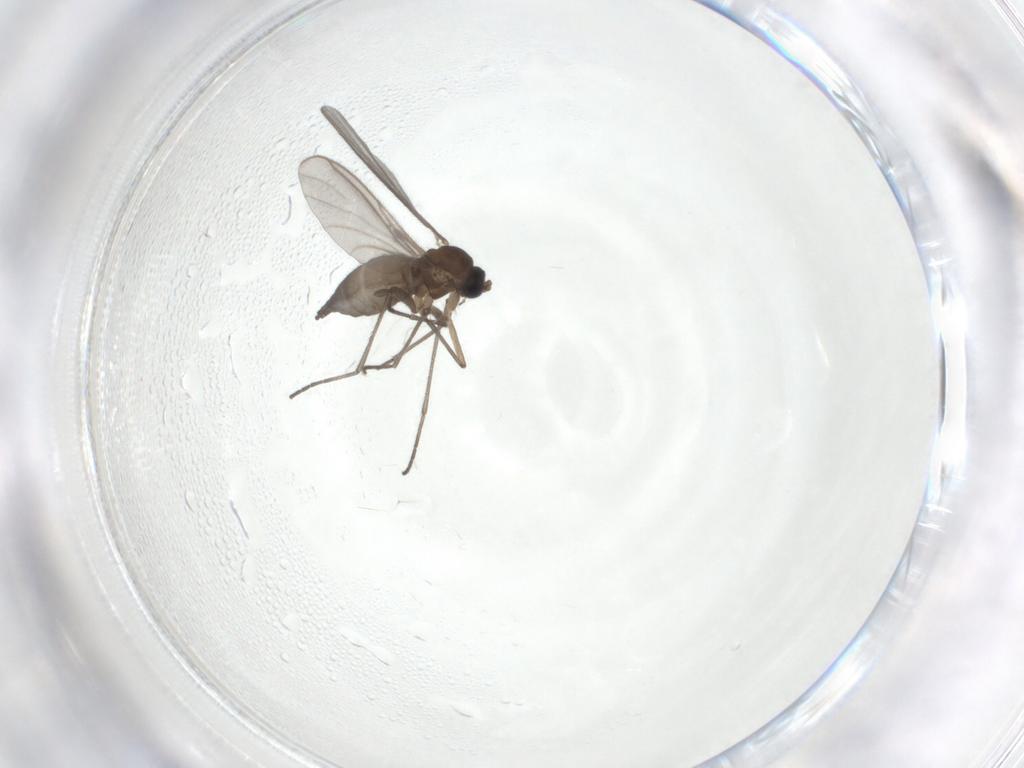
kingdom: Animalia
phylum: Arthropoda
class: Insecta
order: Diptera
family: Sciaridae
